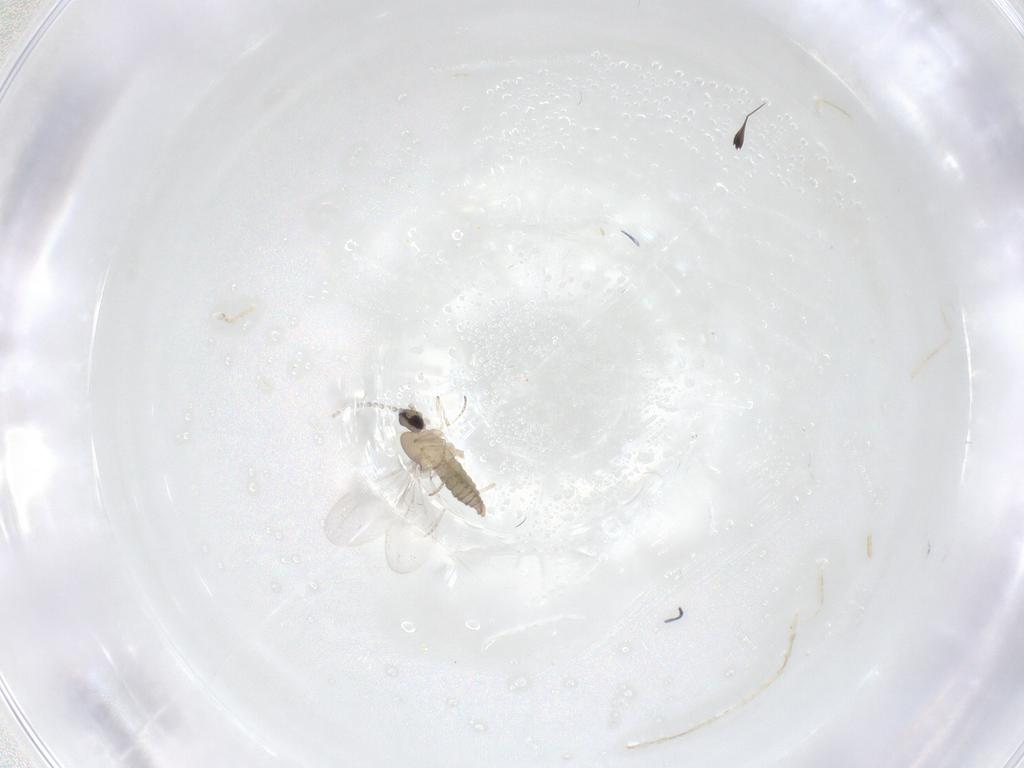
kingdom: Animalia
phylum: Arthropoda
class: Insecta
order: Diptera
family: Cecidomyiidae
